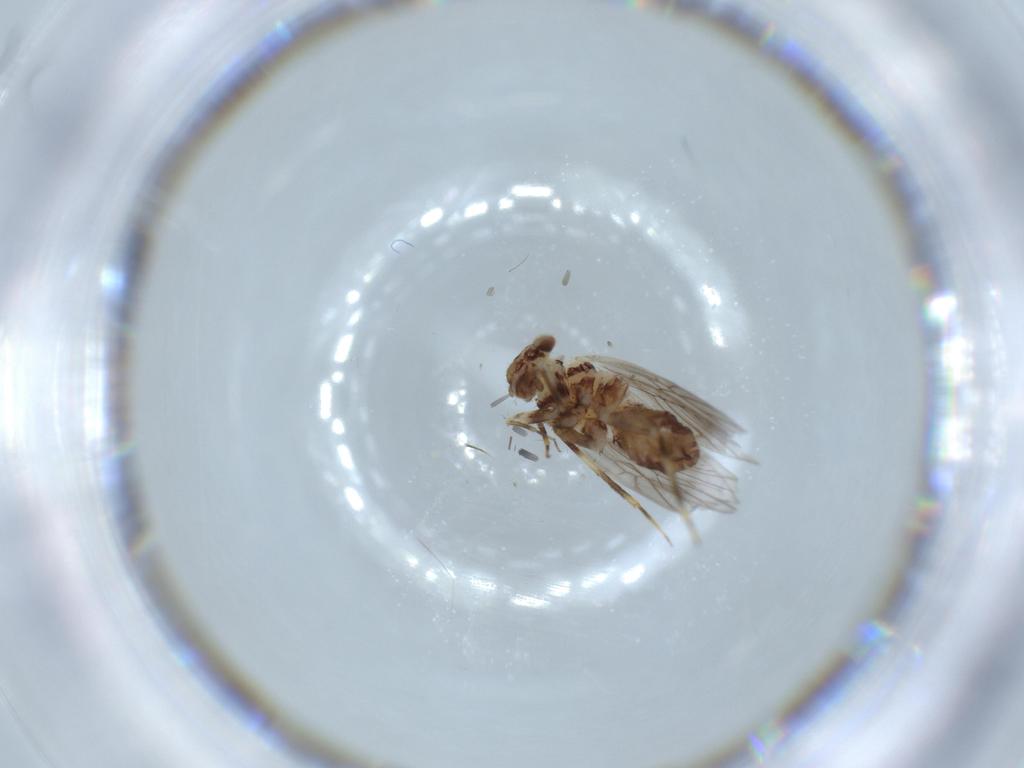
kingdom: Animalia
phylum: Arthropoda
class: Insecta
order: Psocodea
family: Lepidopsocidae
